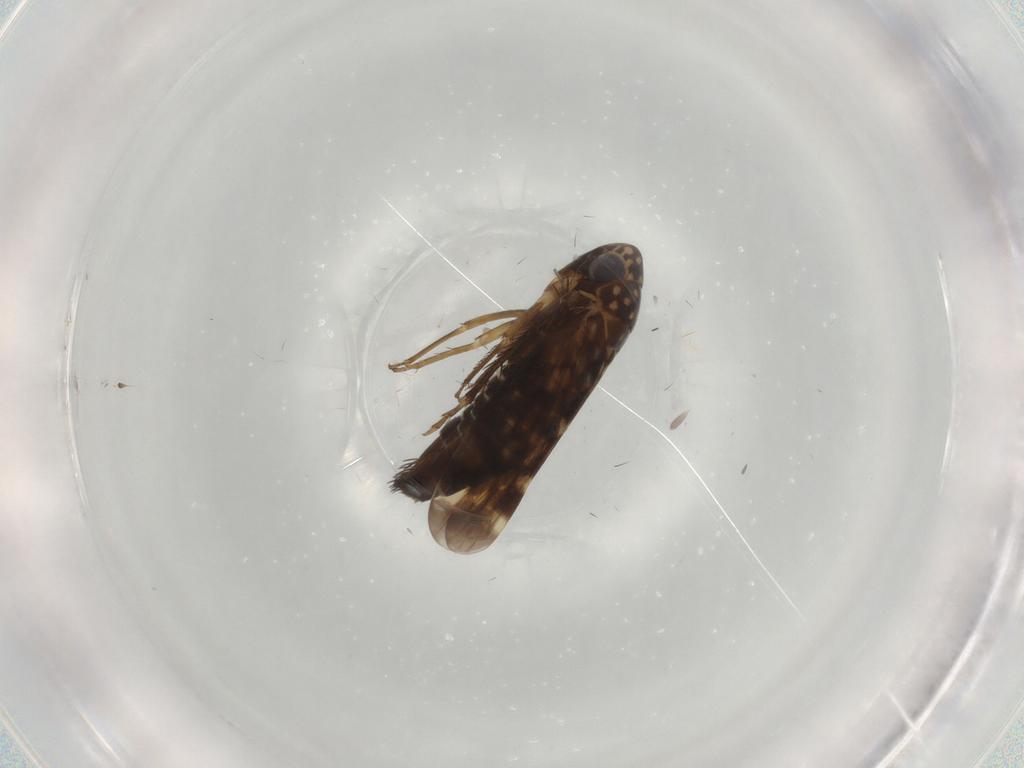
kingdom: Animalia
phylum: Arthropoda
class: Insecta
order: Hemiptera
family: Cicadellidae
